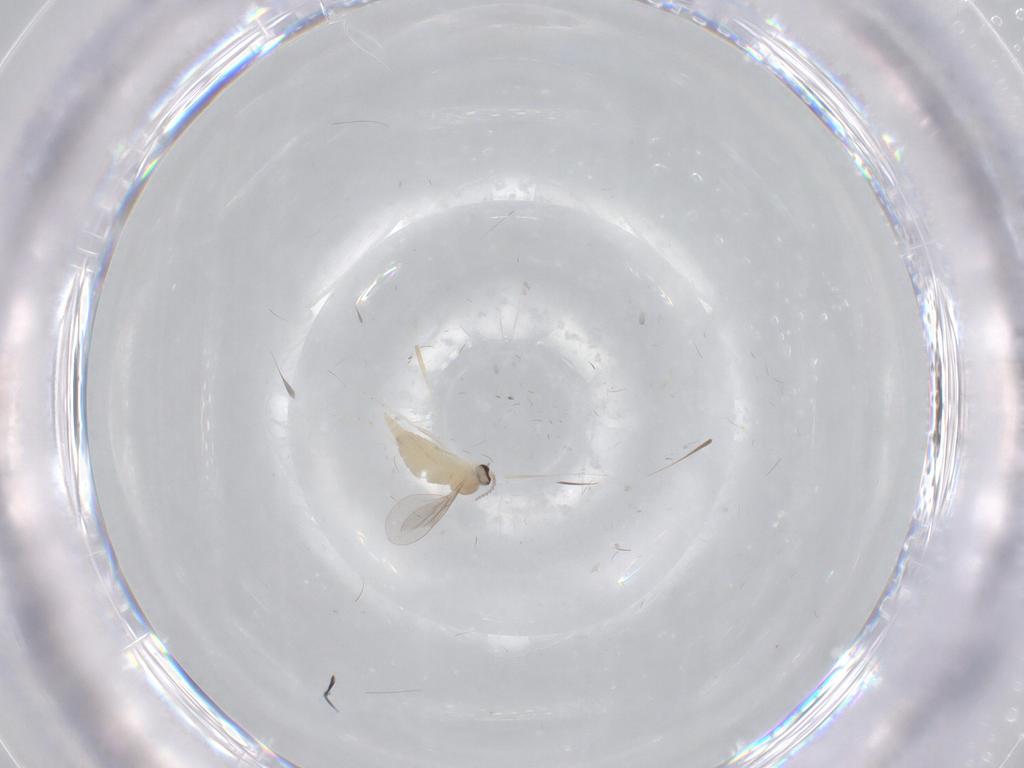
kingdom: Animalia
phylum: Arthropoda
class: Insecta
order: Diptera
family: Cecidomyiidae
